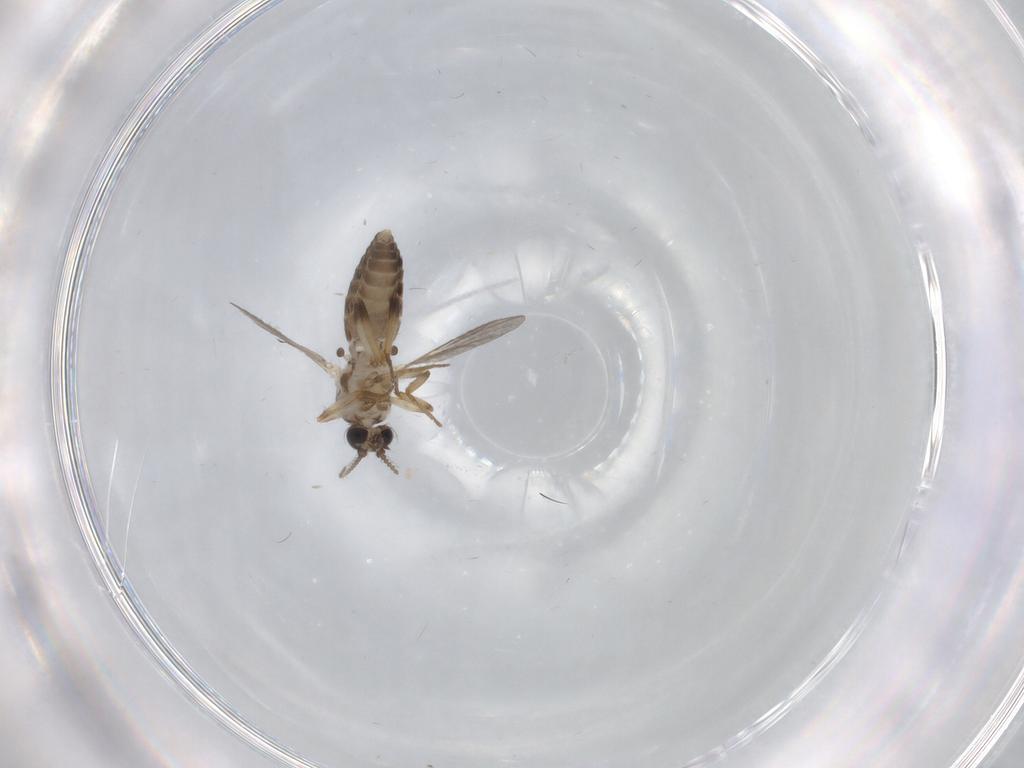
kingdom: Animalia
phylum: Arthropoda
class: Insecta
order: Diptera
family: Ceratopogonidae
